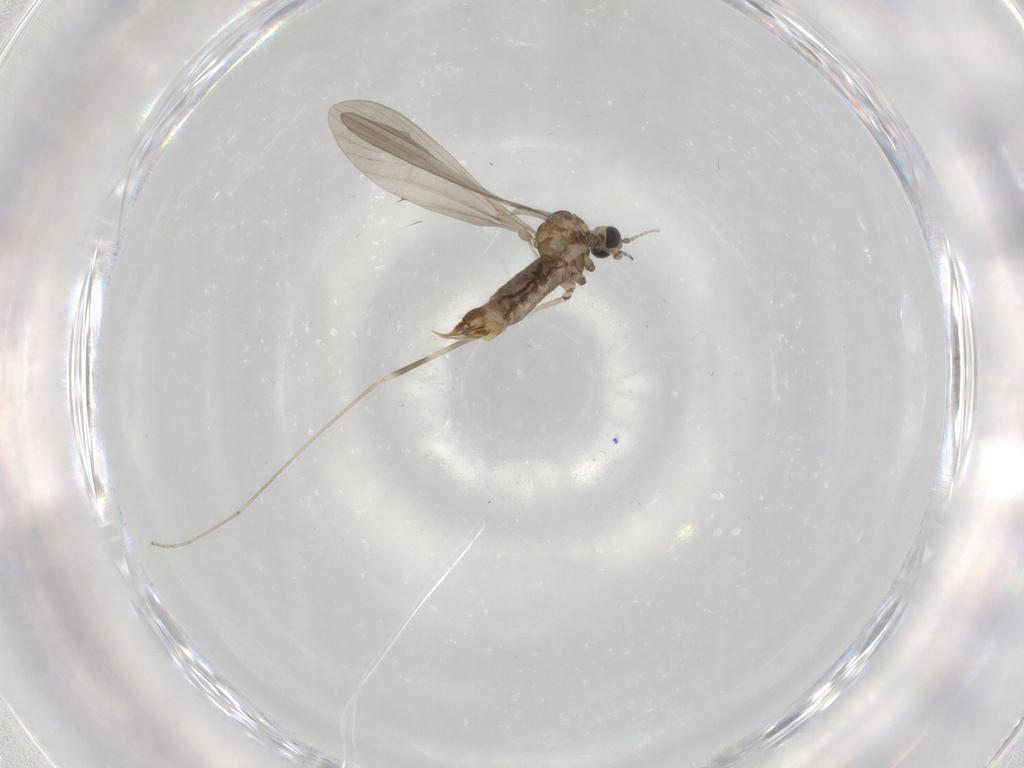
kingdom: Animalia
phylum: Arthropoda
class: Insecta
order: Diptera
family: Limoniidae
